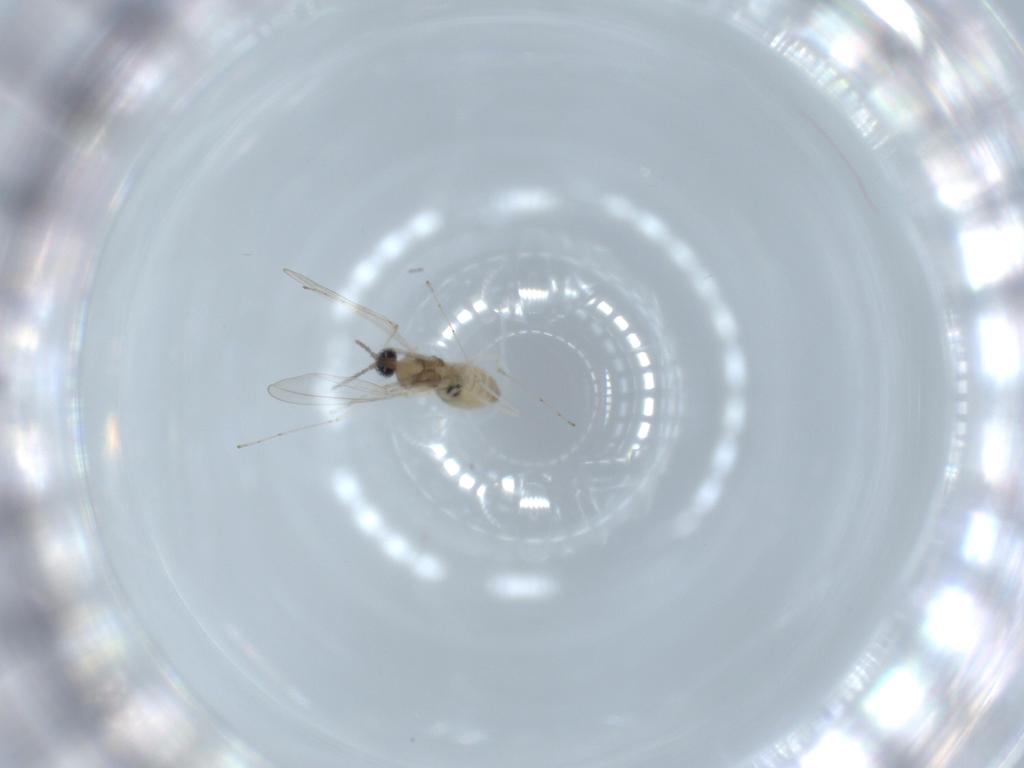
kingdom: Animalia
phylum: Arthropoda
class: Insecta
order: Diptera
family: Cecidomyiidae
